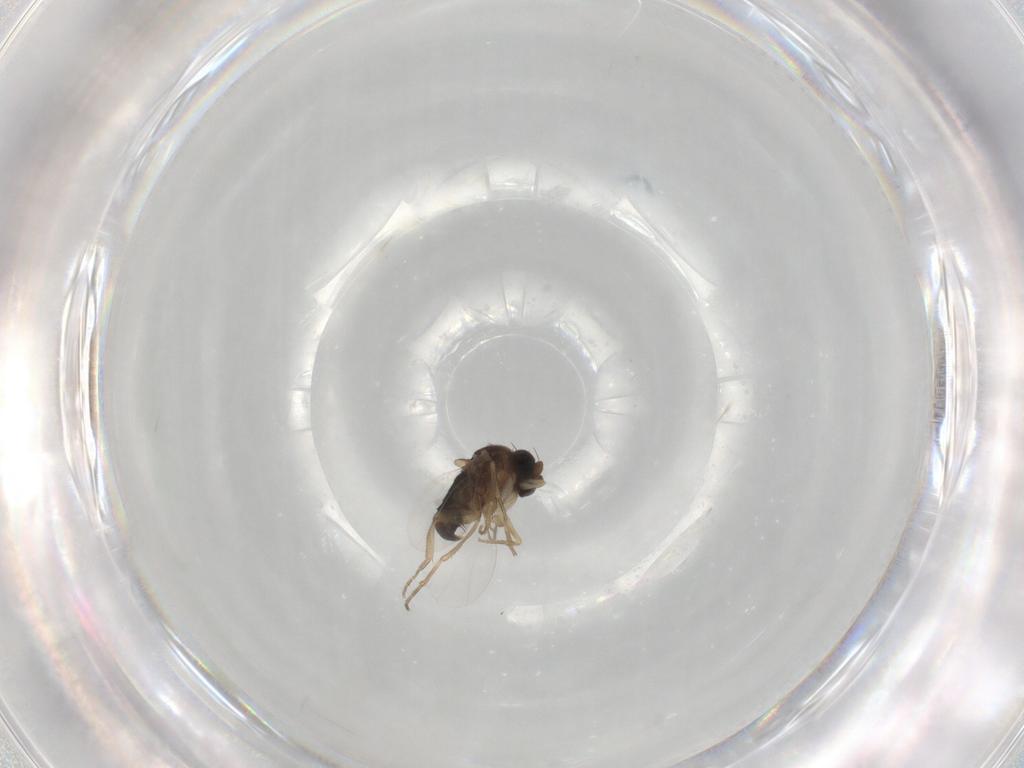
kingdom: Animalia
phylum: Arthropoda
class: Insecta
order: Diptera
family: Phoridae
